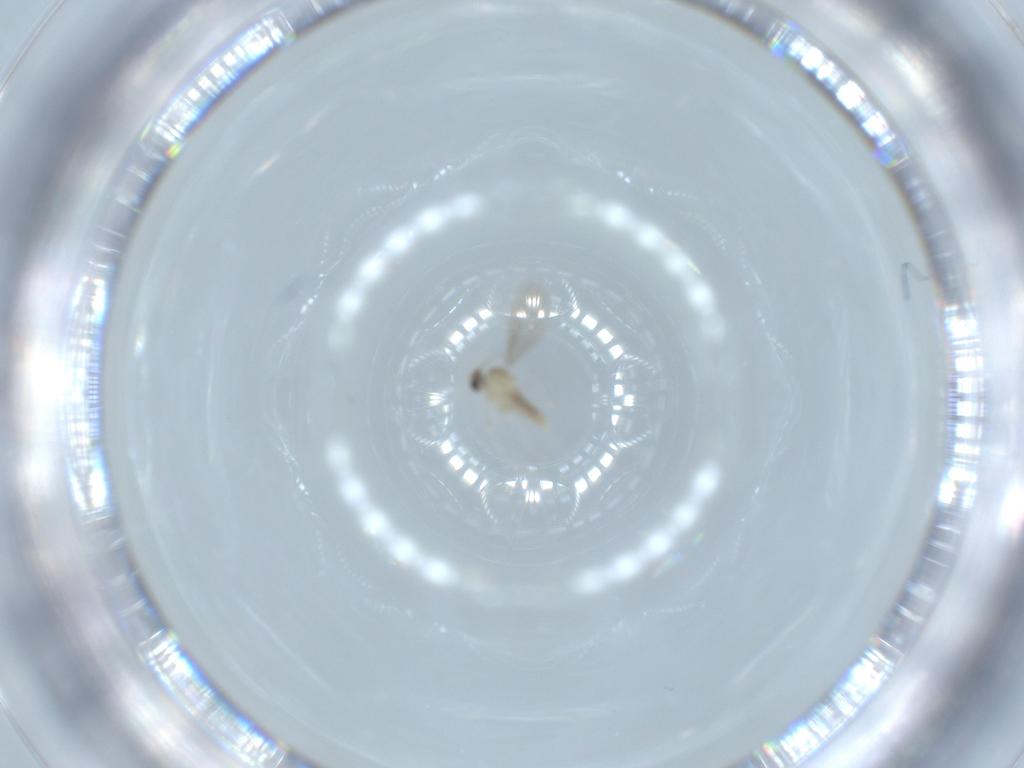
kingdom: Animalia
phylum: Arthropoda
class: Insecta
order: Diptera
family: Cecidomyiidae
